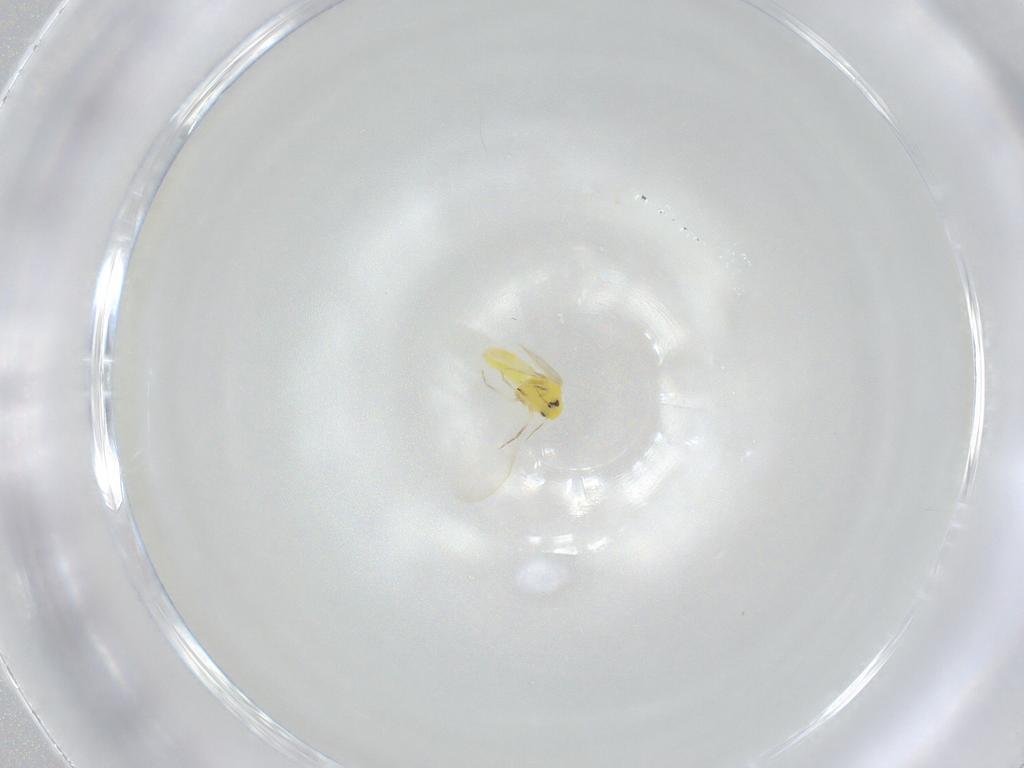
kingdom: Animalia
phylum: Arthropoda
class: Insecta
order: Hemiptera
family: Aleyrodidae
